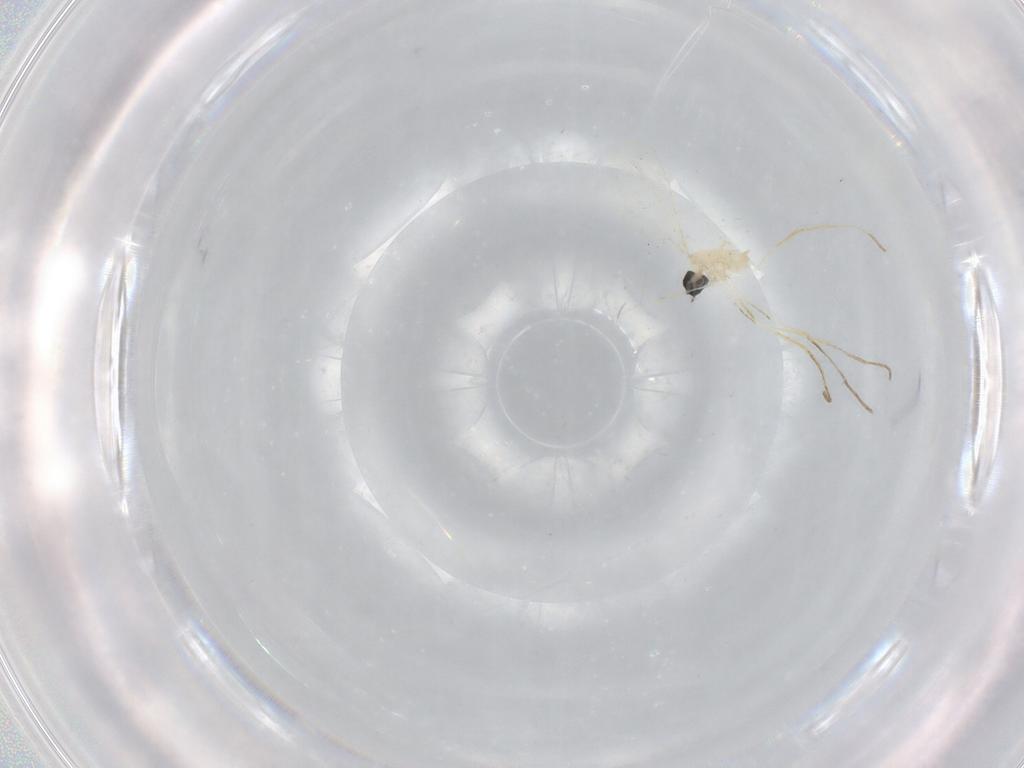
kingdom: Animalia
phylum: Arthropoda
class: Insecta
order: Diptera
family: Cecidomyiidae
